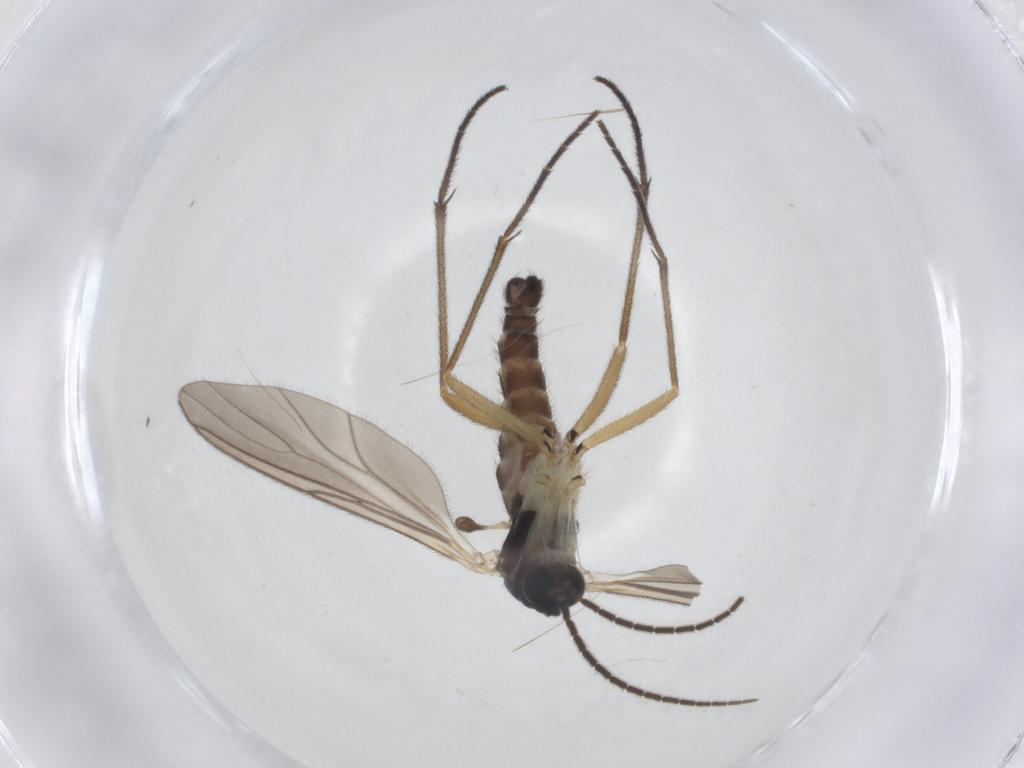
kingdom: Animalia
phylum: Arthropoda
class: Insecta
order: Diptera
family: Sciaridae
